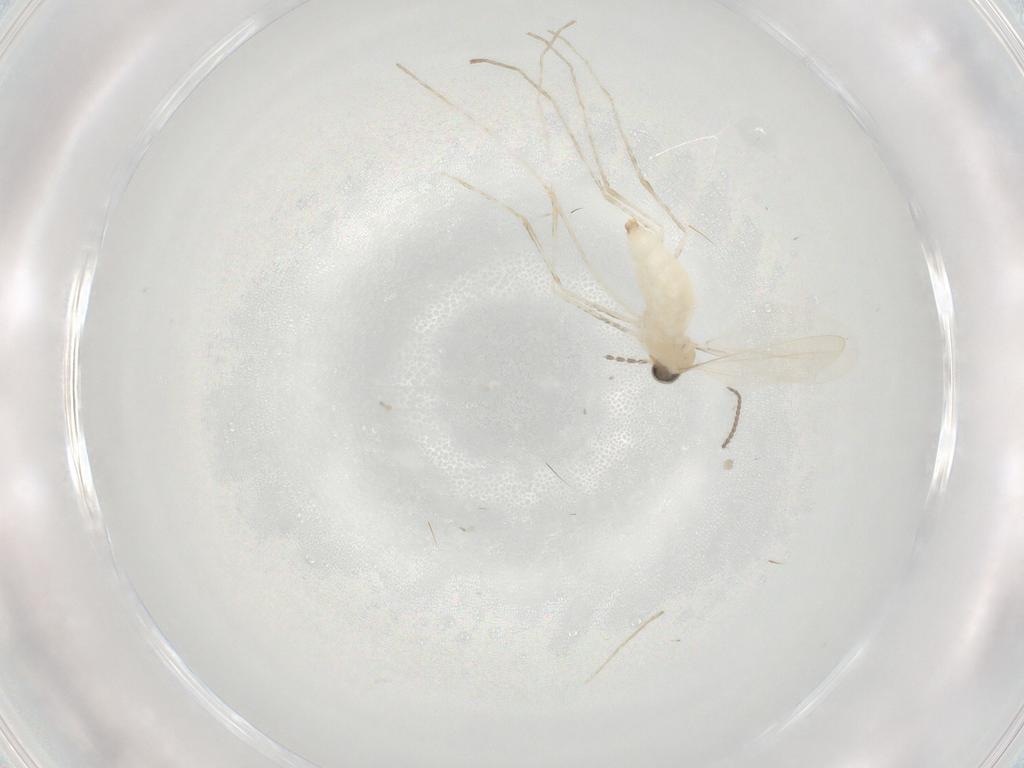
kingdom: Animalia
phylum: Arthropoda
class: Insecta
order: Diptera
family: Cecidomyiidae
